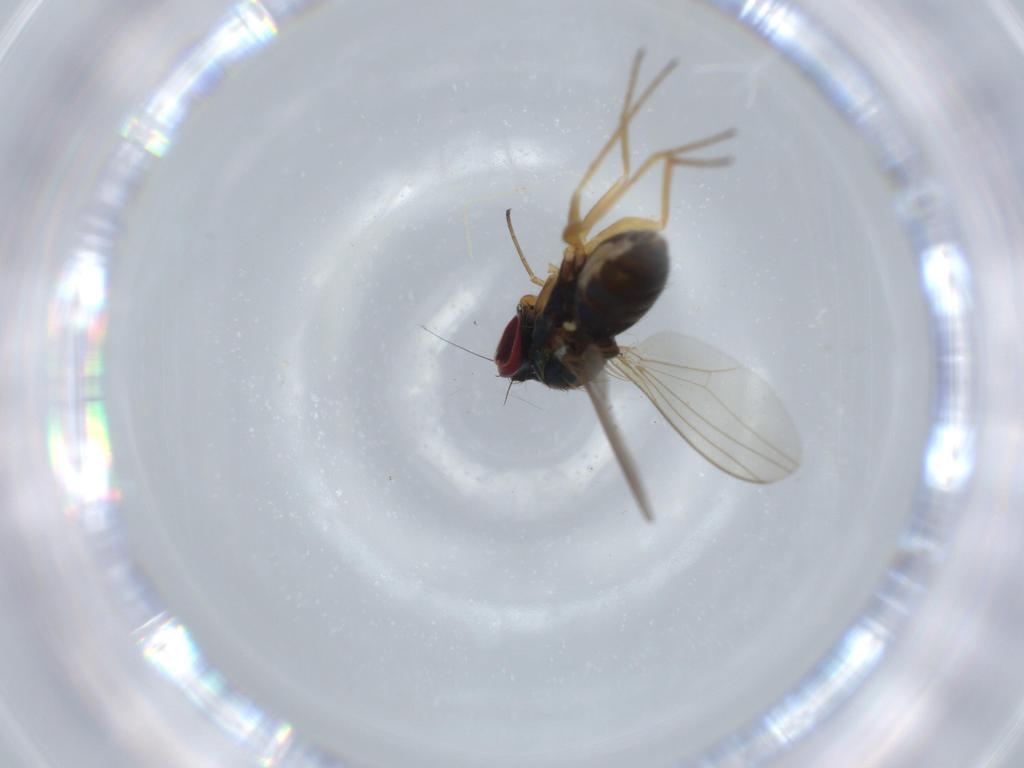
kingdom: Animalia
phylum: Arthropoda
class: Insecta
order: Diptera
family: Dolichopodidae
